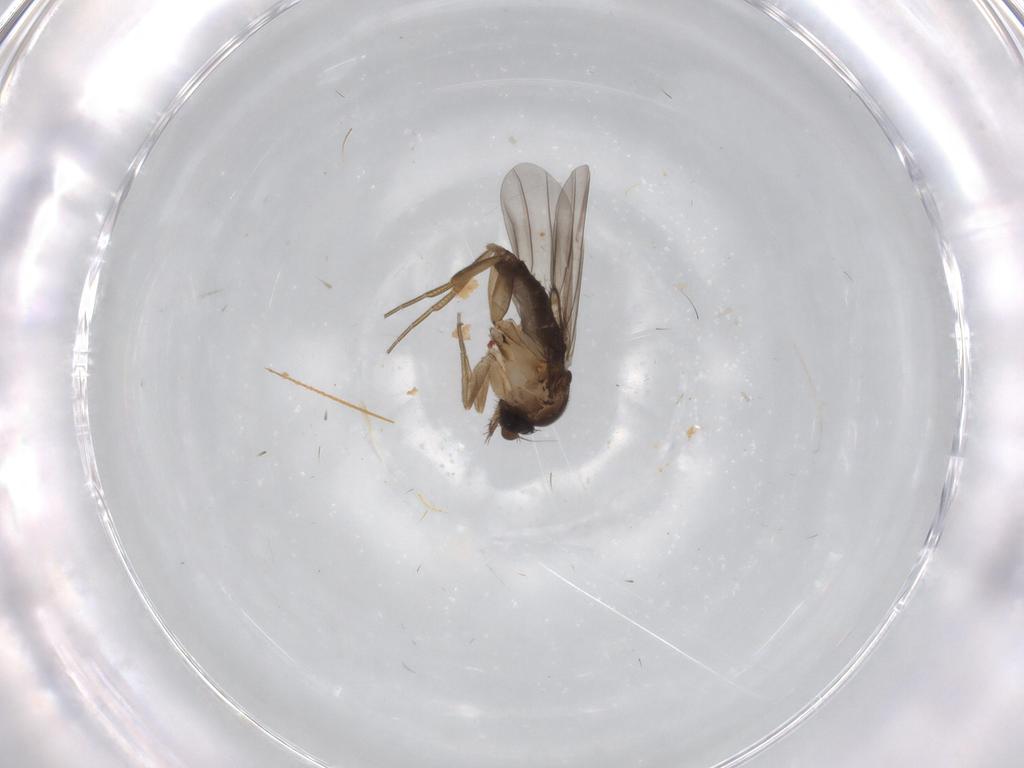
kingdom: Animalia
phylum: Arthropoda
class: Insecta
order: Diptera
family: Phoridae
